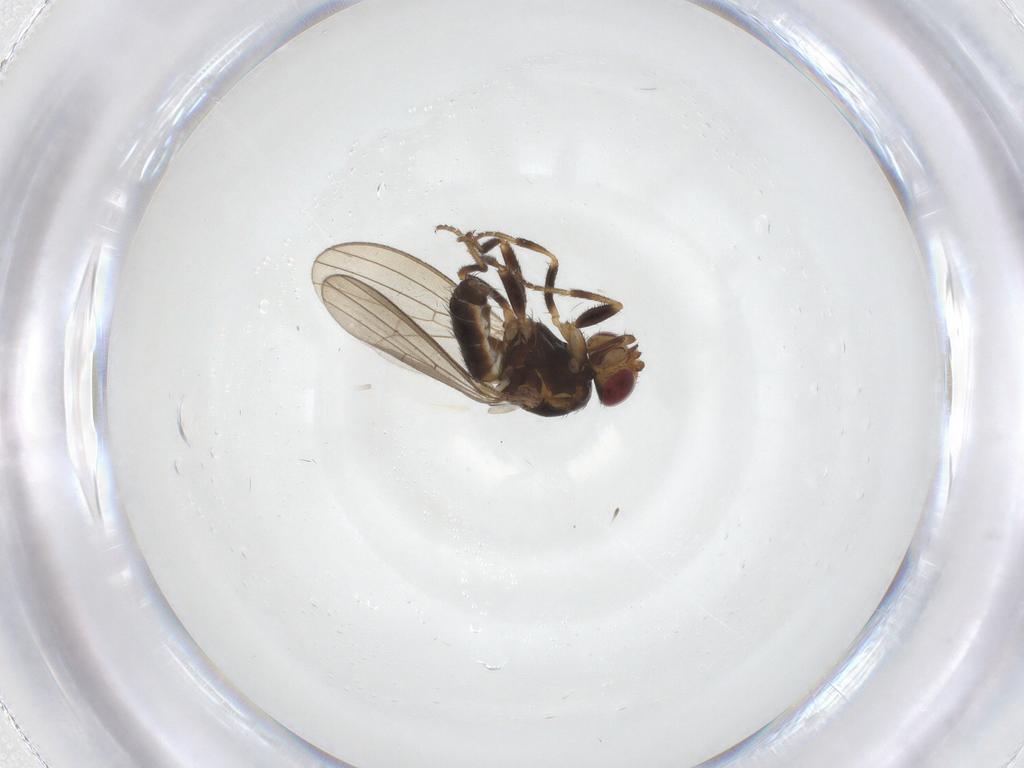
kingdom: Animalia
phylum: Arthropoda
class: Insecta
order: Diptera
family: Chloropidae
